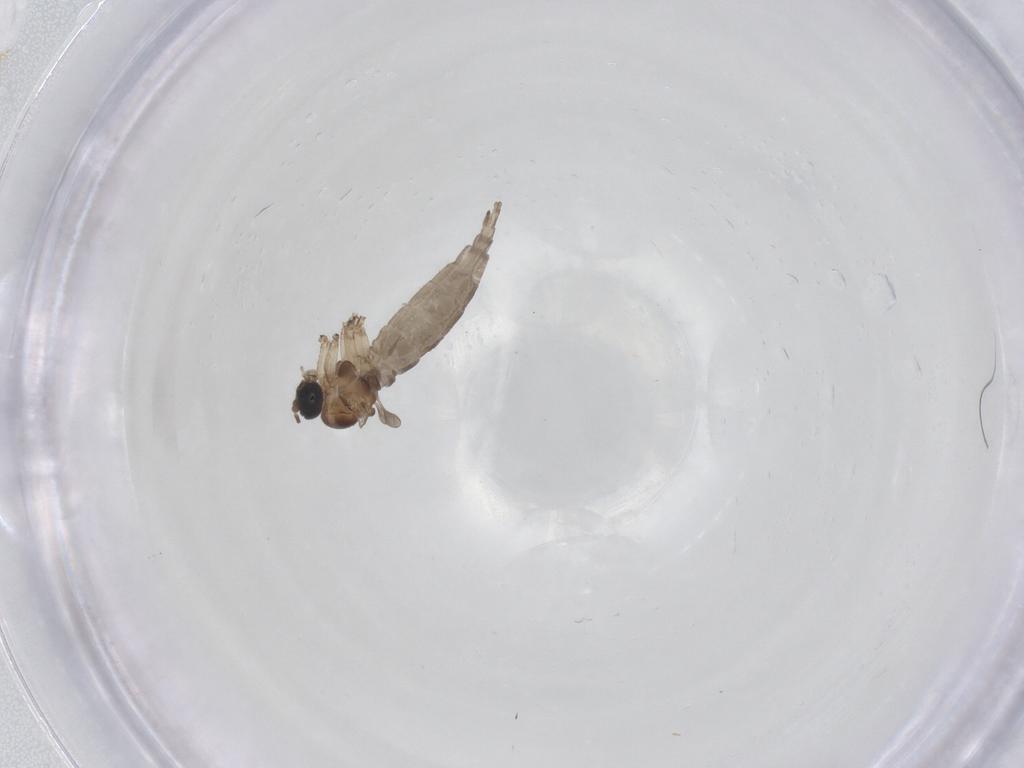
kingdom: Animalia
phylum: Arthropoda
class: Insecta
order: Diptera
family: Sciaridae
